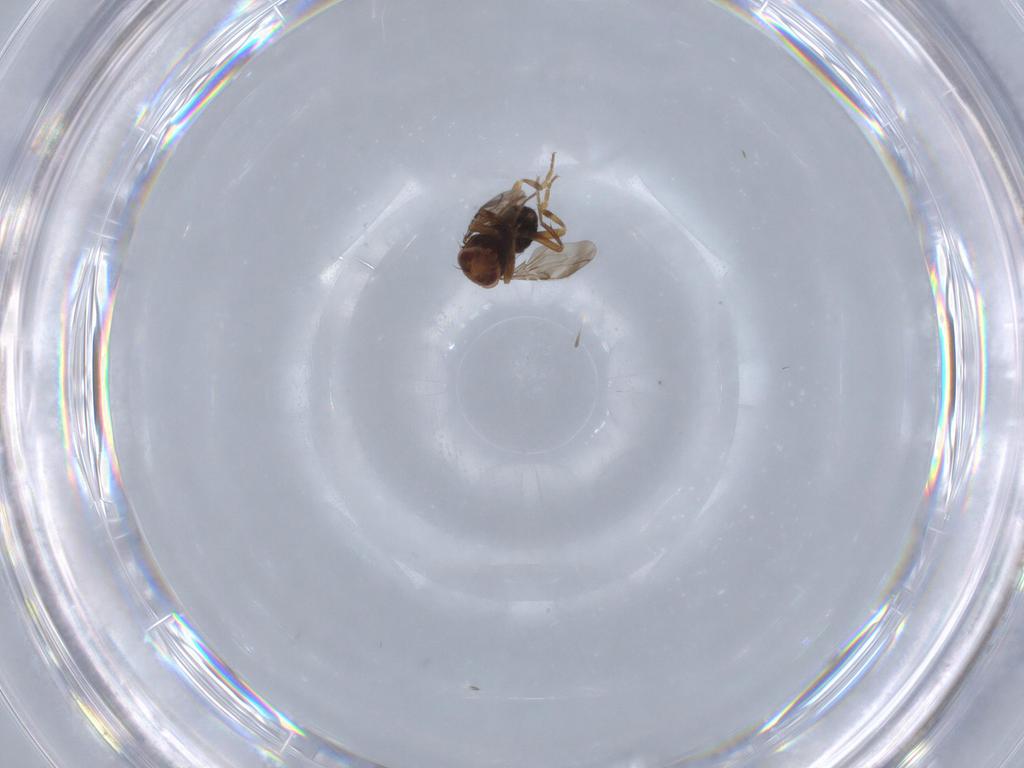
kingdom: Animalia
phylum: Arthropoda
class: Insecta
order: Diptera
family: Sphaeroceridae
